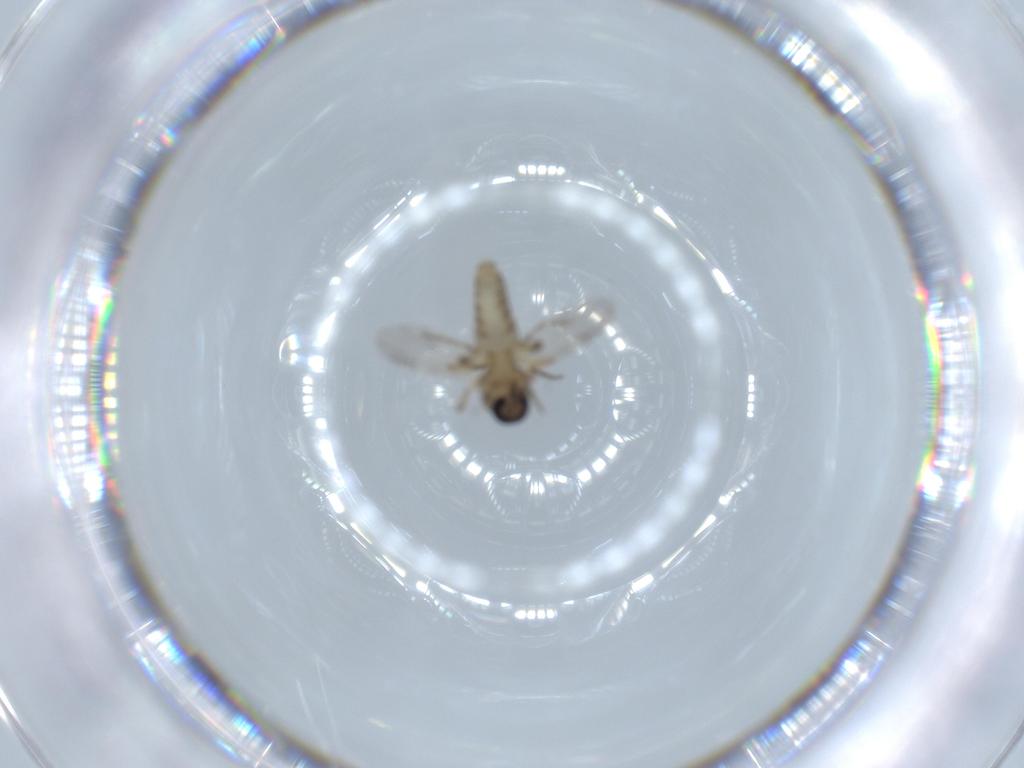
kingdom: Animalia
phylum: Arthropoda
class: Insecta
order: Diptera
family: Ceratopogonidae
